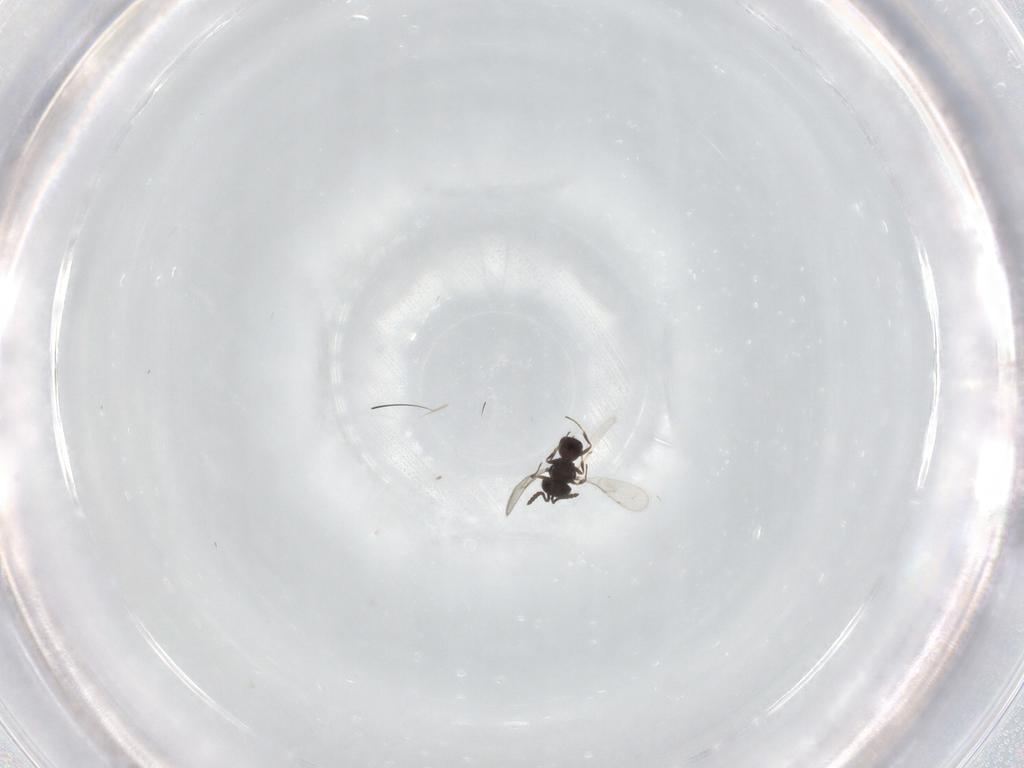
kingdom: Animalia
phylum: Arthropoda
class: Insecta
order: Hymenoptera
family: Scelionidae
